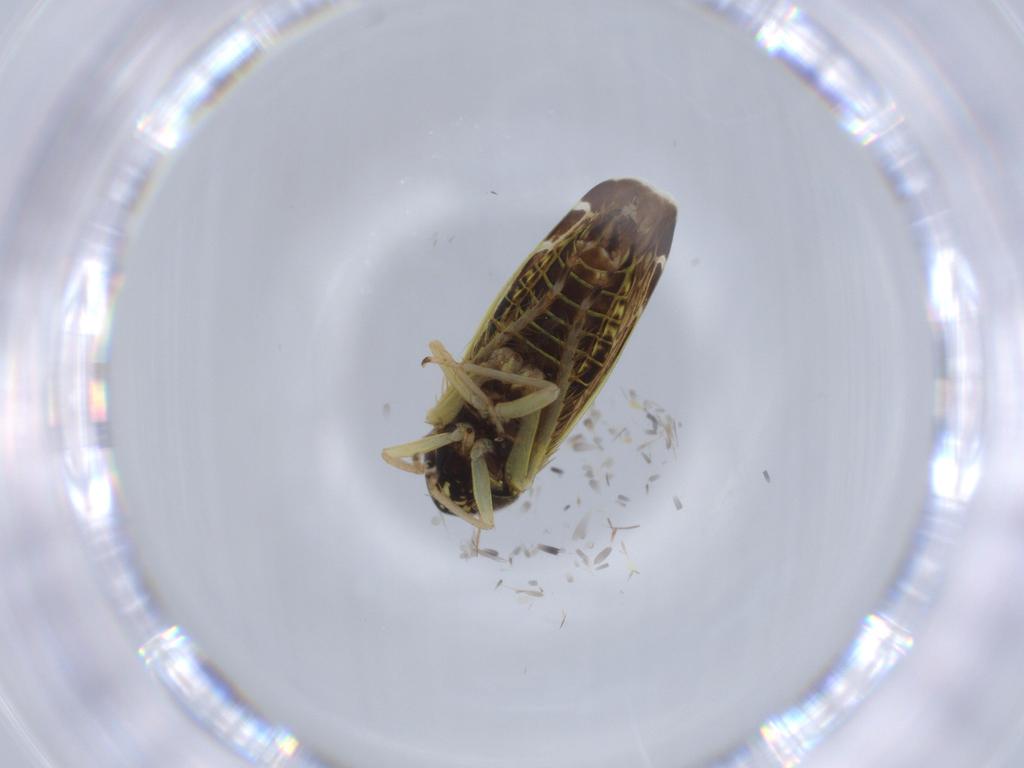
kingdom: Animalia
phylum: Arthropoda
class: Insecta
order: Hemiptera
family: Cicadellidae
